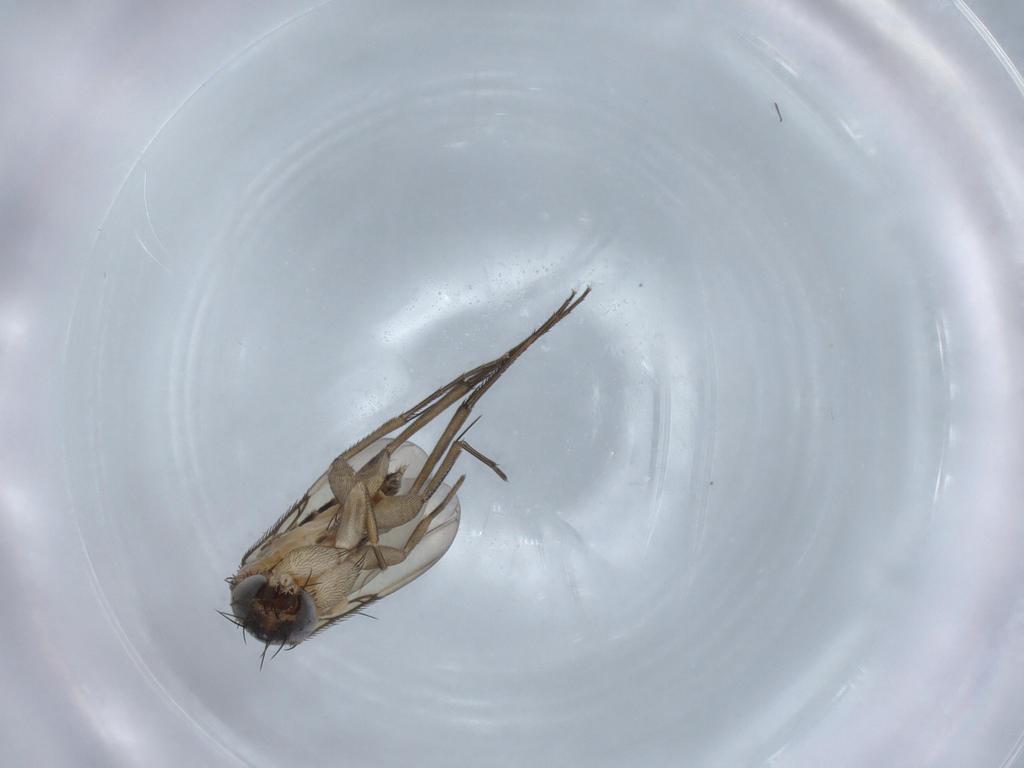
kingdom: Animalia
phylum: Arthropoda
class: Insecta
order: Diptera
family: Phoridae
